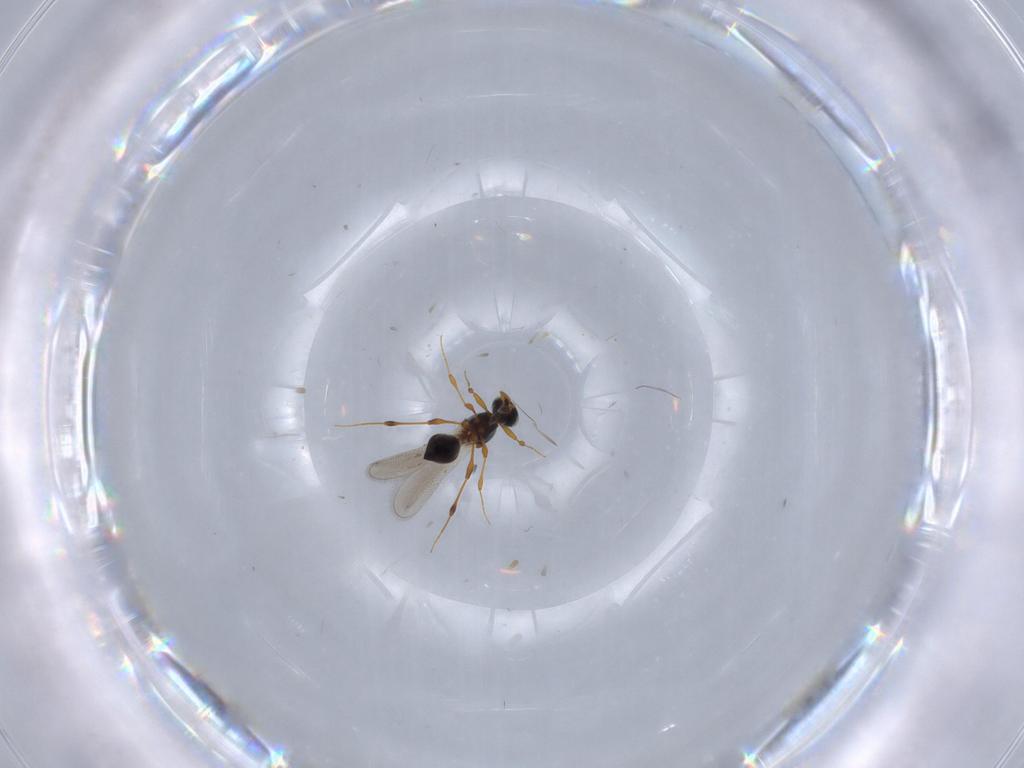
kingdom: Animalia
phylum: Arthropoda
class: Insecta
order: Hymenoptera
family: Platygastridae
